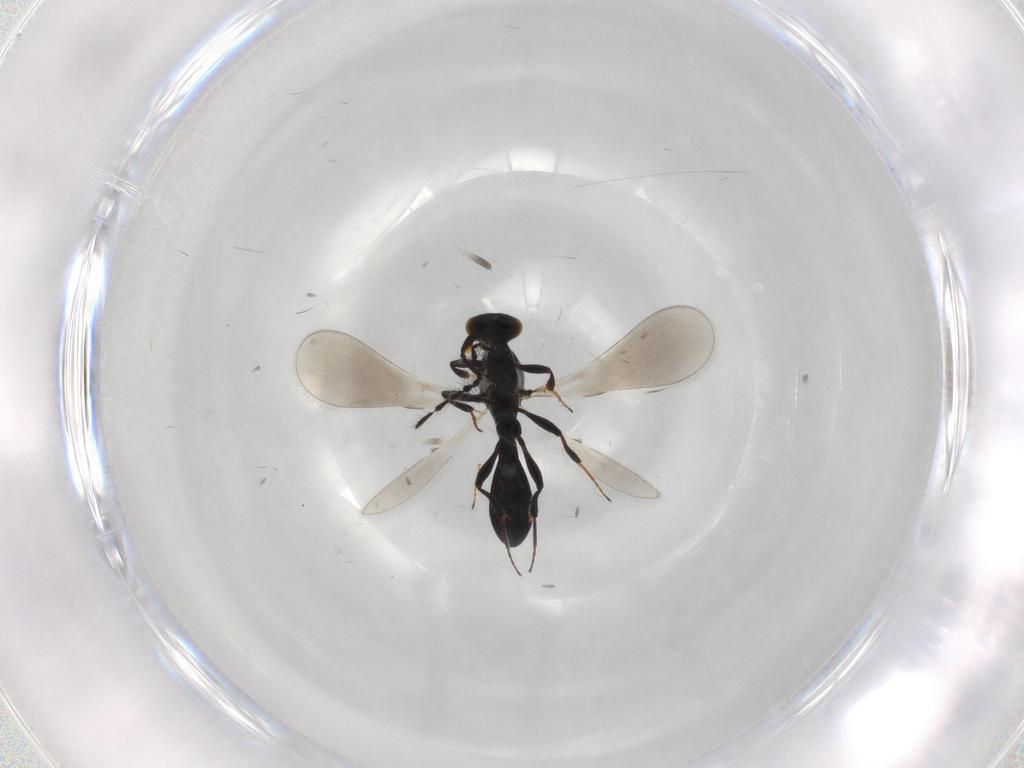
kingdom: Animalia
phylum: Arthropoda
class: Insecta
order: Hymenoptera
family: Platygastridae
